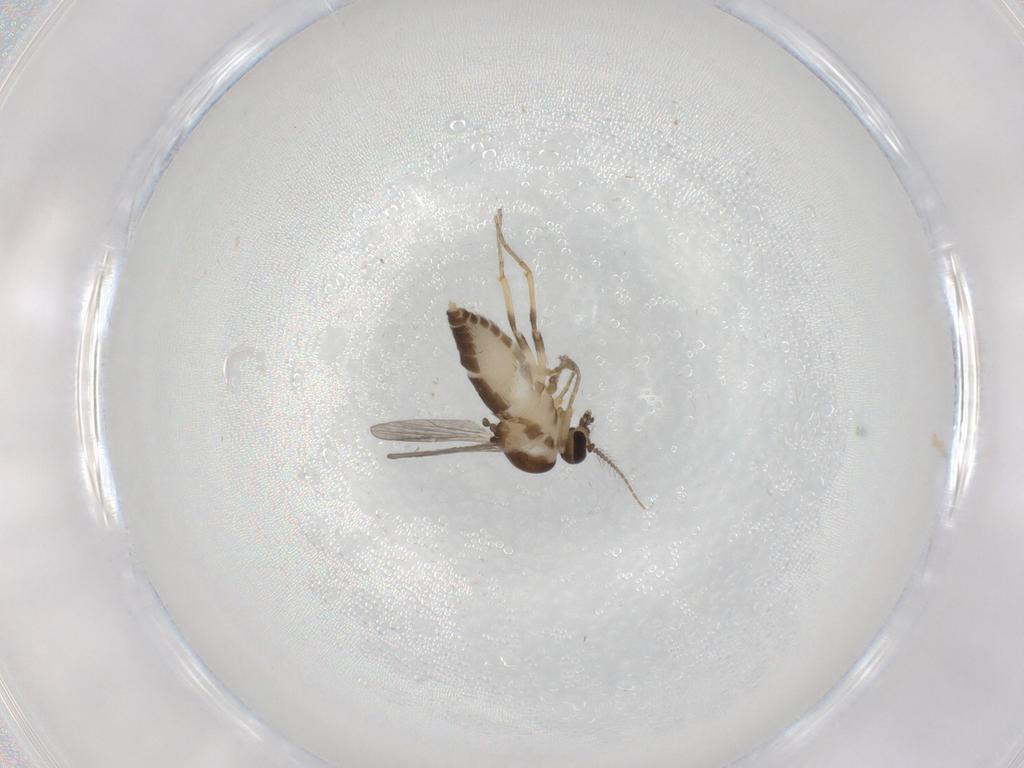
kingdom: Animalia
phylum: Arthropoda
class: Insecta
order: Diptera
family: Ceratopogonidae
